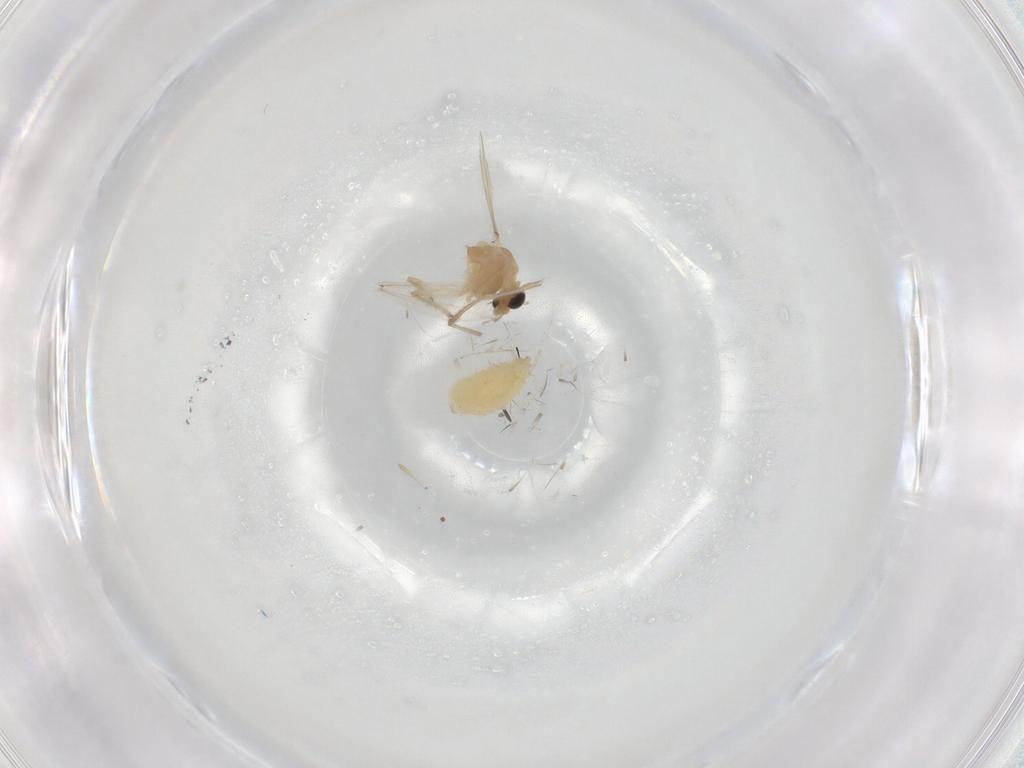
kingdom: Animalia
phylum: Arthropoda
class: Insecta
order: Diptera
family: Chironomidae
